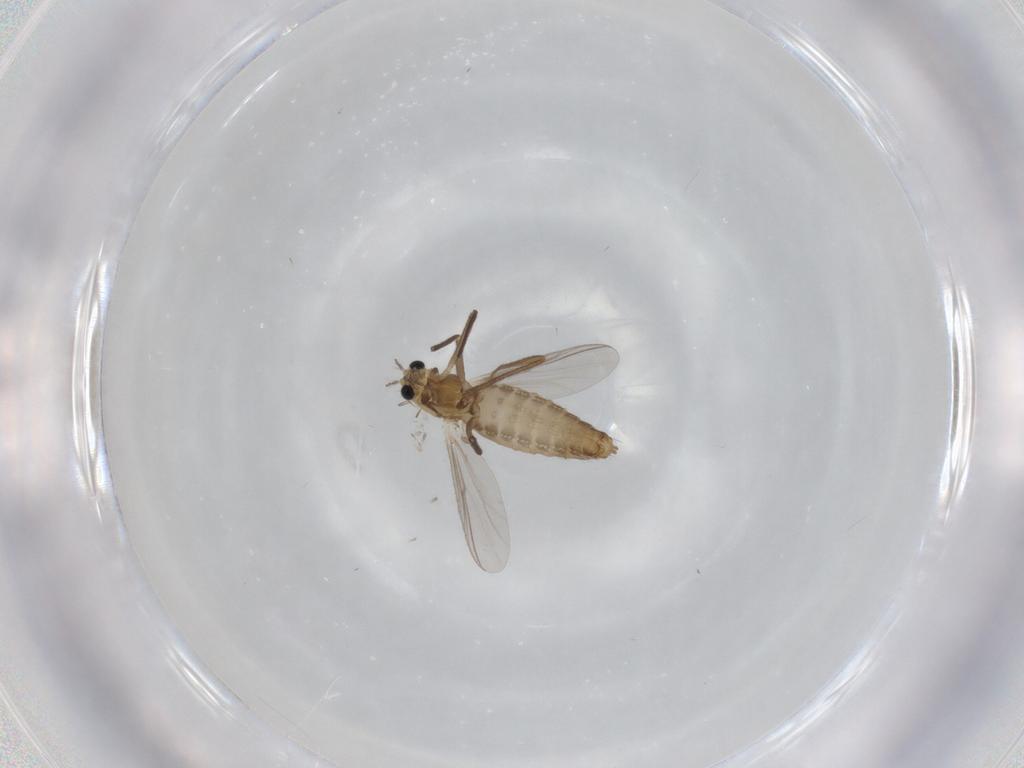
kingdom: Animalia
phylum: Arthropoda
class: Insecta
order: Diptera
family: Chironomidae
